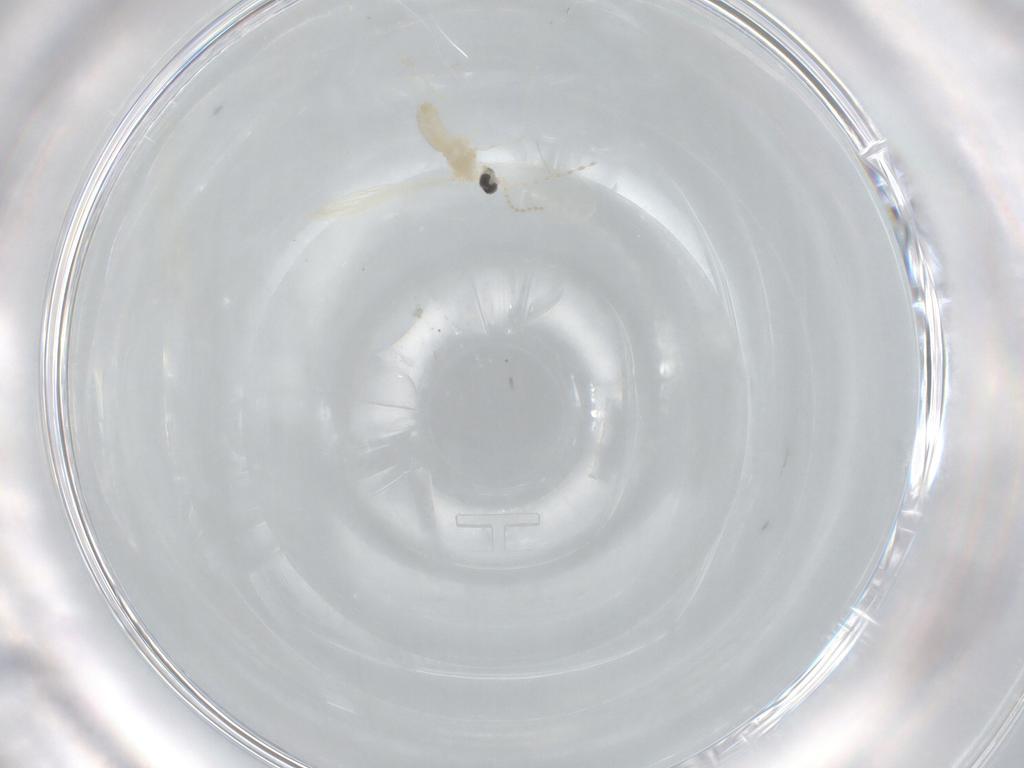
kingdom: Animalia
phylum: Arthropoda
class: Insecta
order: Diptera
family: Cecidomyiidae
